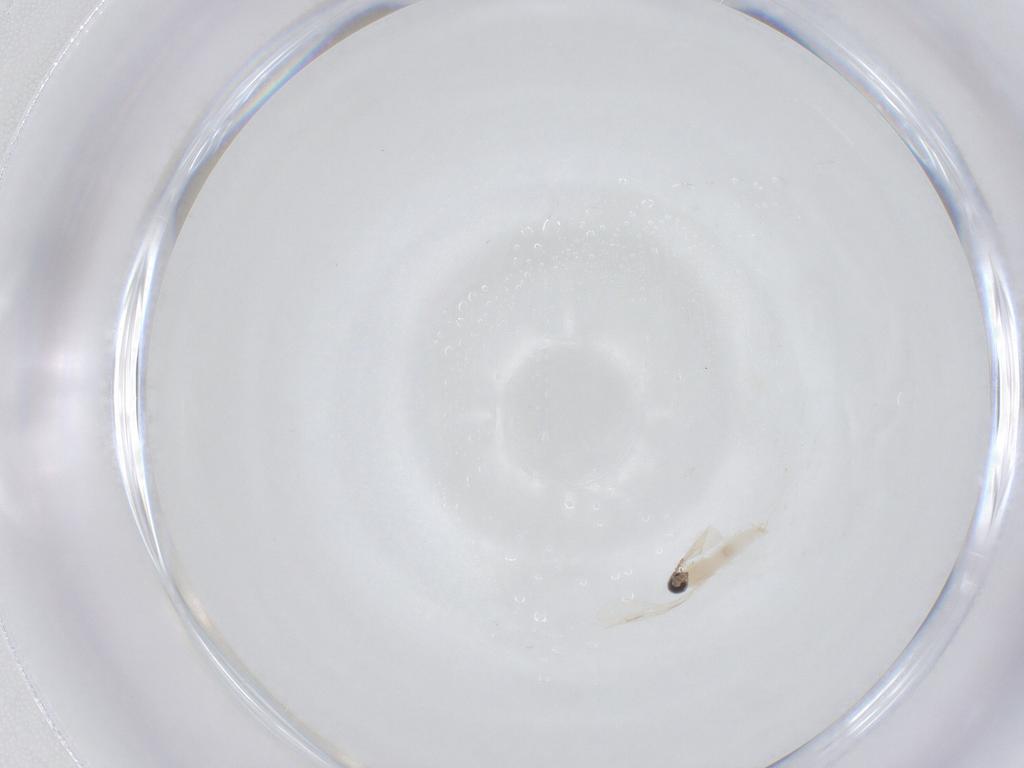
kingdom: Animalia
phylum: Arthropoda
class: Insecta
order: Diptera
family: Cecidomyiidae
